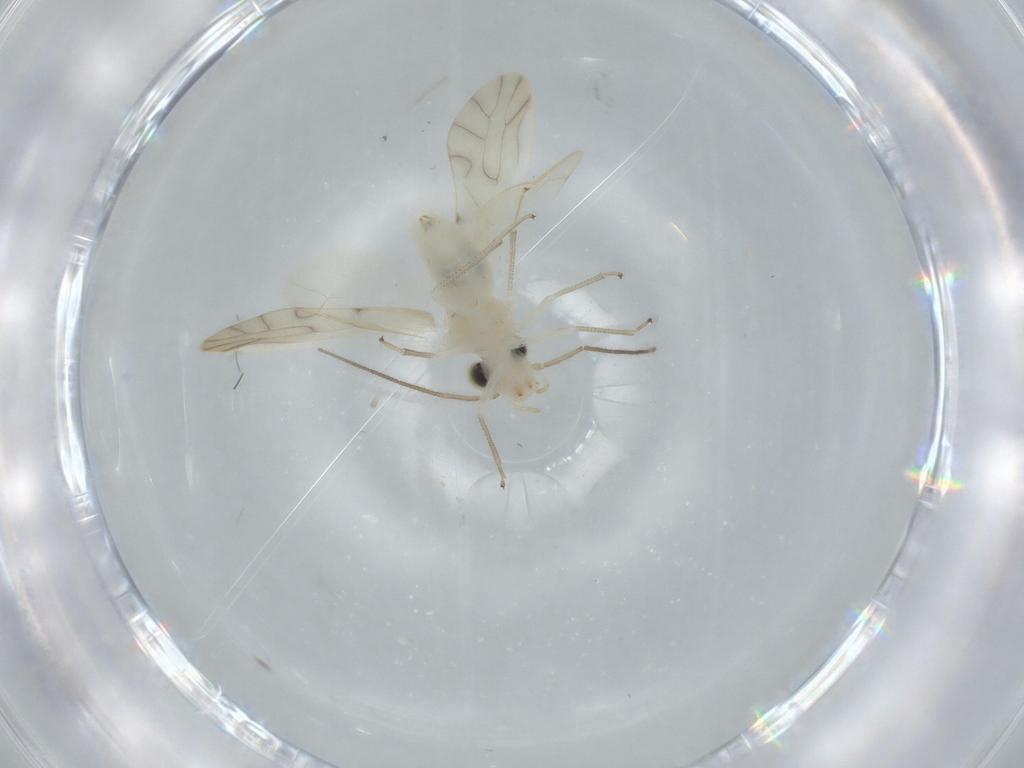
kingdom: Animalia
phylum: Arthropoda
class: Insecta
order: Psocodea
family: Caeciliusidae
